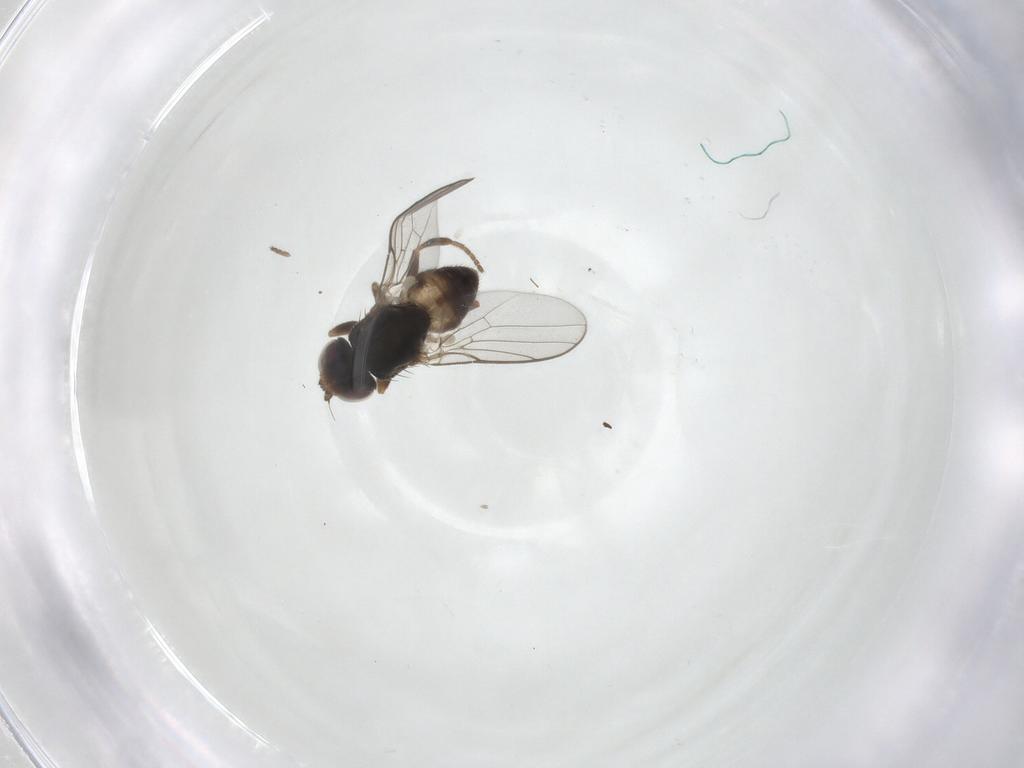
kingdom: Animalia
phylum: Arthropoda
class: Insecta
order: Diptera
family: Chloropidae
